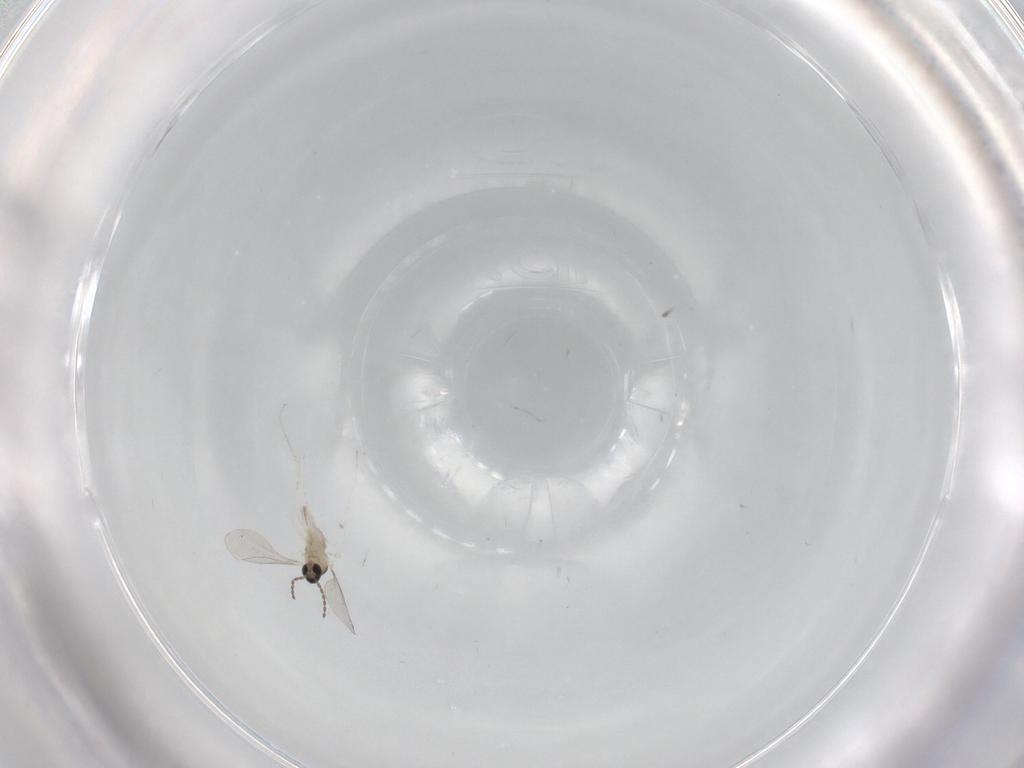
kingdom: Animalia
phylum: Arthropoda
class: Insecta
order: Diptera
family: Cecidomyiidae
